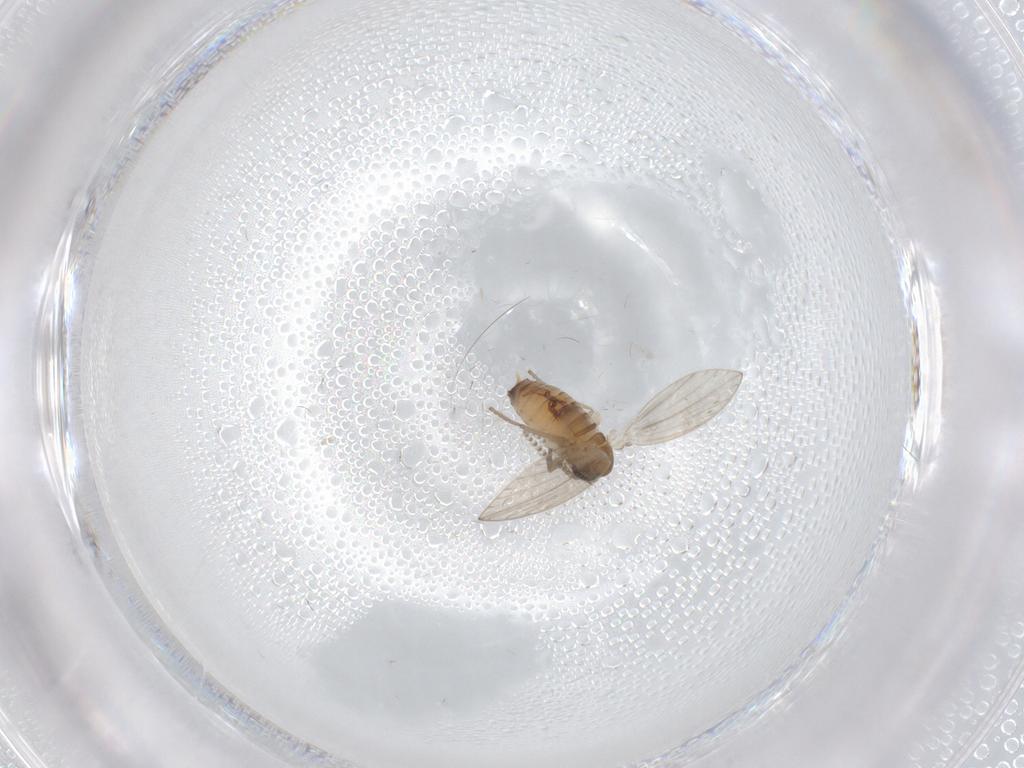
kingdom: Animalia
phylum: Arthropoda
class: Insecta
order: Diptera
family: Psychodidae
